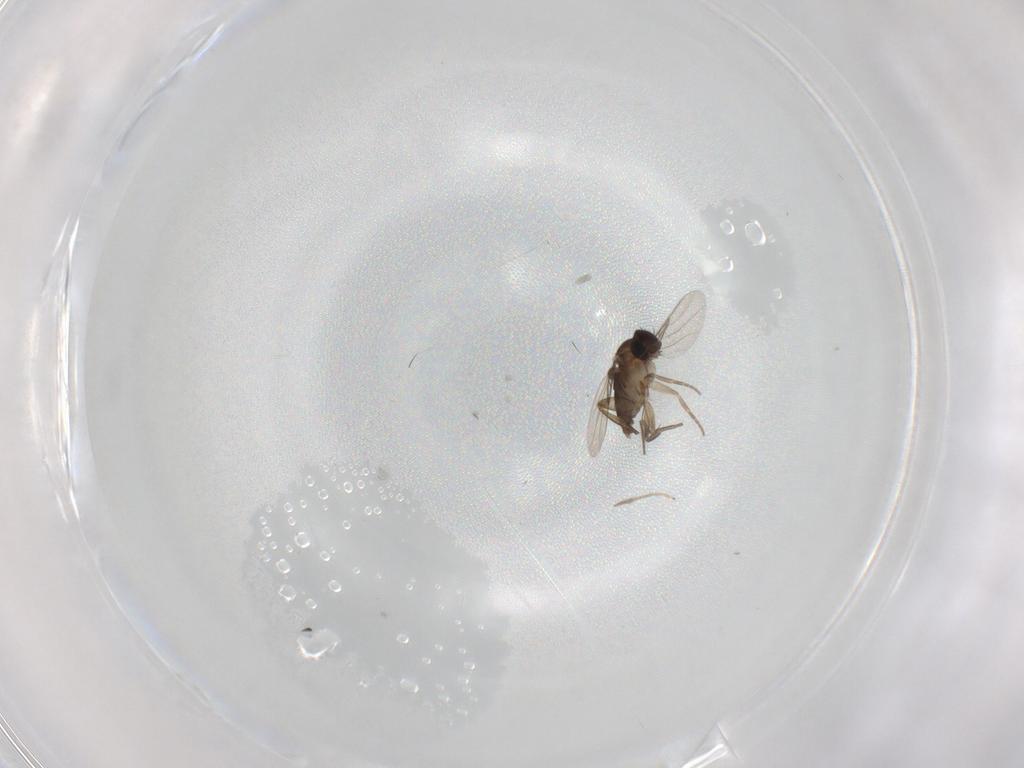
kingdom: Animalia
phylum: Arthropoda
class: Insecta
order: Diptera
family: Chironomidae
